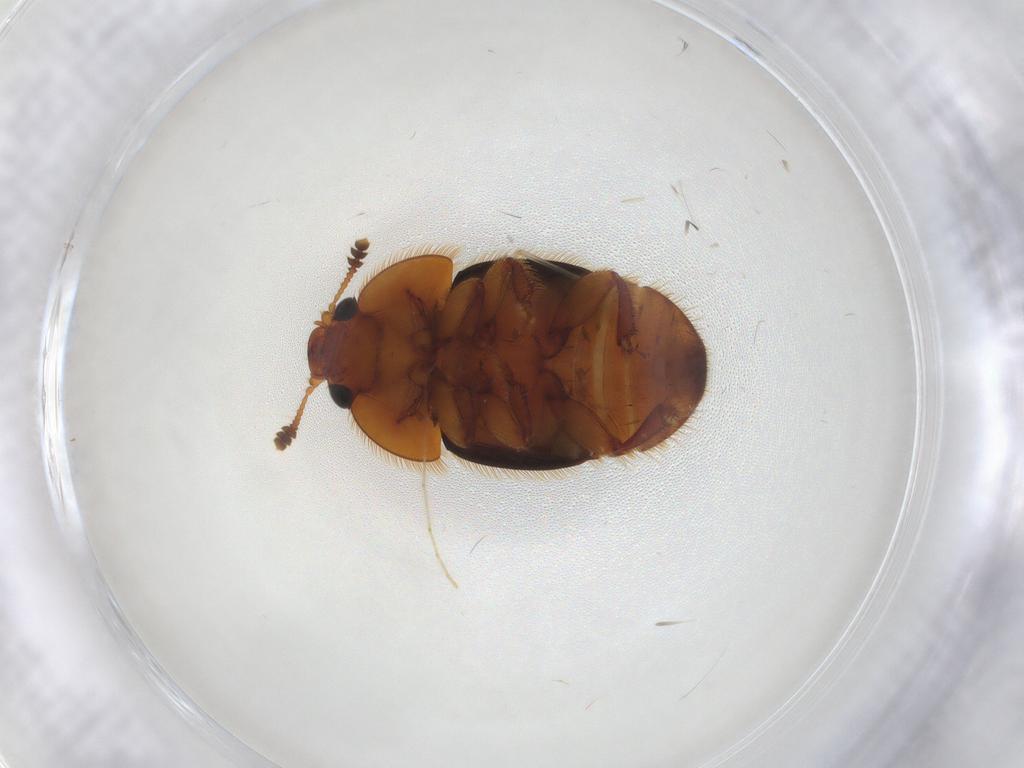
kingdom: Animalia
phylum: Arthropoda
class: Insecta
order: Coleoptera
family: Nitidulidae
